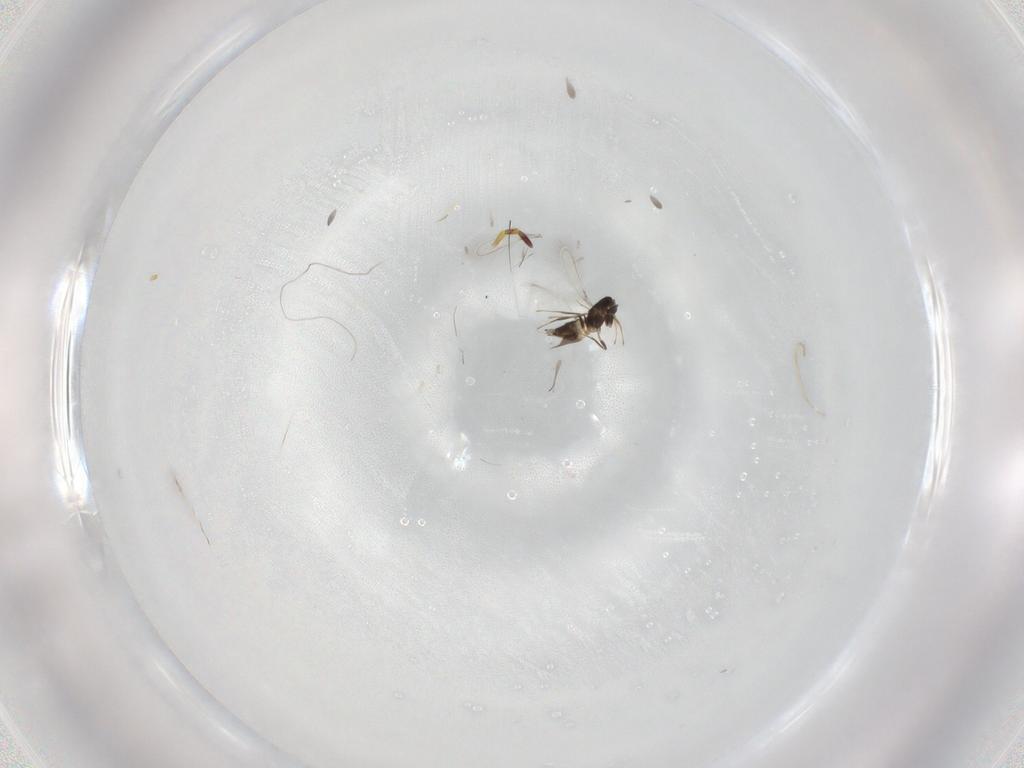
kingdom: Animalia
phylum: Arthropoda
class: Insecta
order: Hymenoptera
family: Mymaridae
